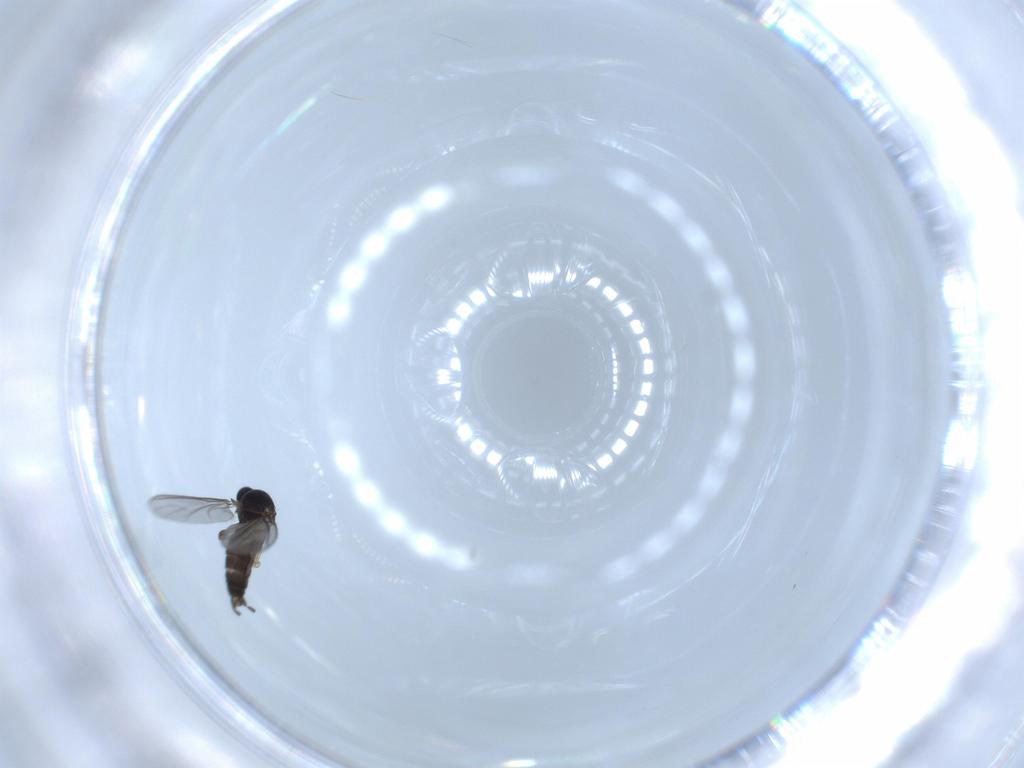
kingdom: Animalia
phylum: Arthropoda
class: Insecta
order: Diptera
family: Sciaridae
